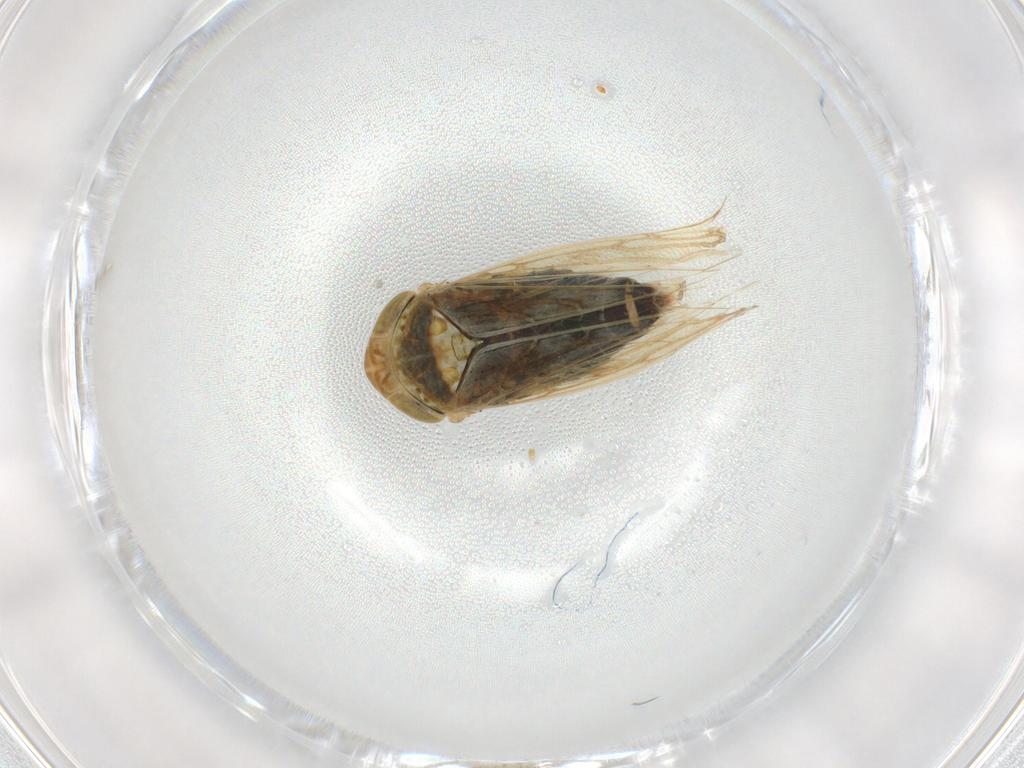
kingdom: Animalia
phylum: Arthropoda
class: Insecta
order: Hemiptera
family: Cicadellidae
